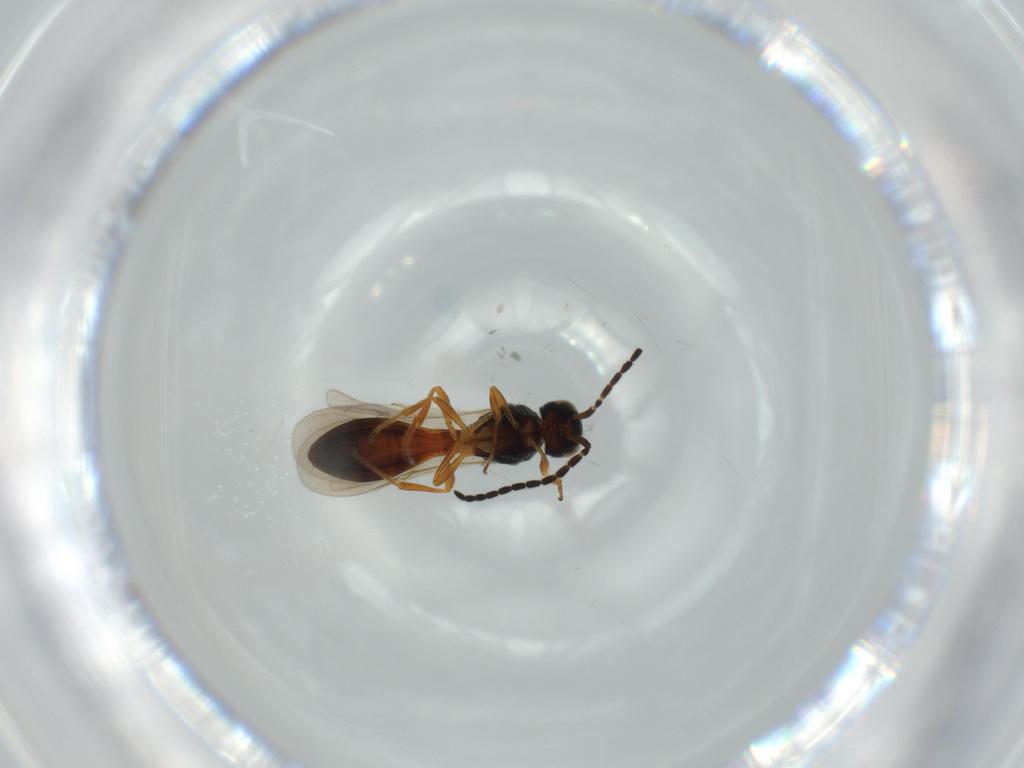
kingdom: Animalia
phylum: Arthropoda
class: Insecta
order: Hymenoptera
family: Scelionidae
